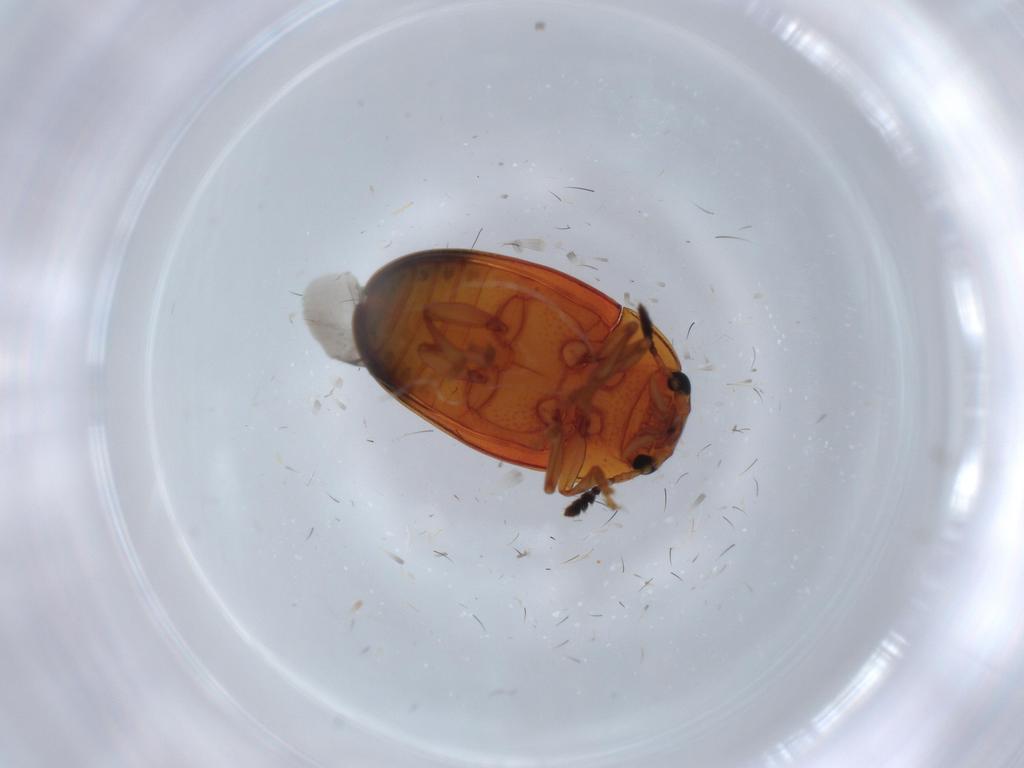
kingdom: Animalia
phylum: Arthropoda
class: Insecta
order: Coleoptera
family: Erotylidae
